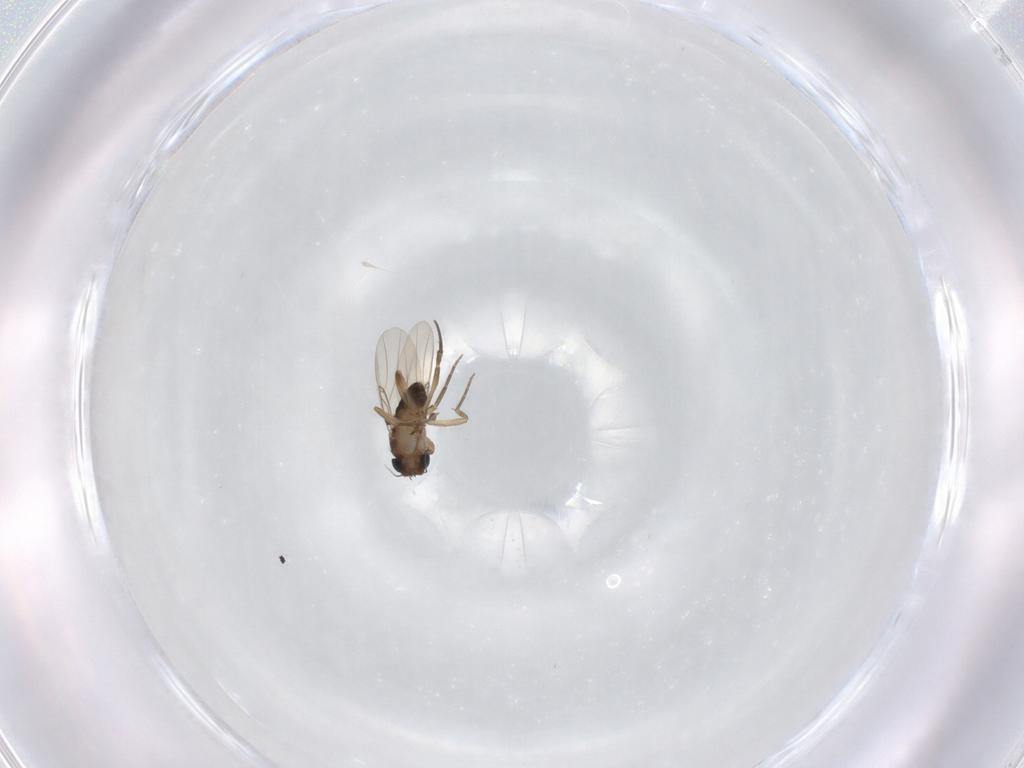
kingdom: Animalia
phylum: Arthropoda
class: Insecta
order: Diptera
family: Phoridae
